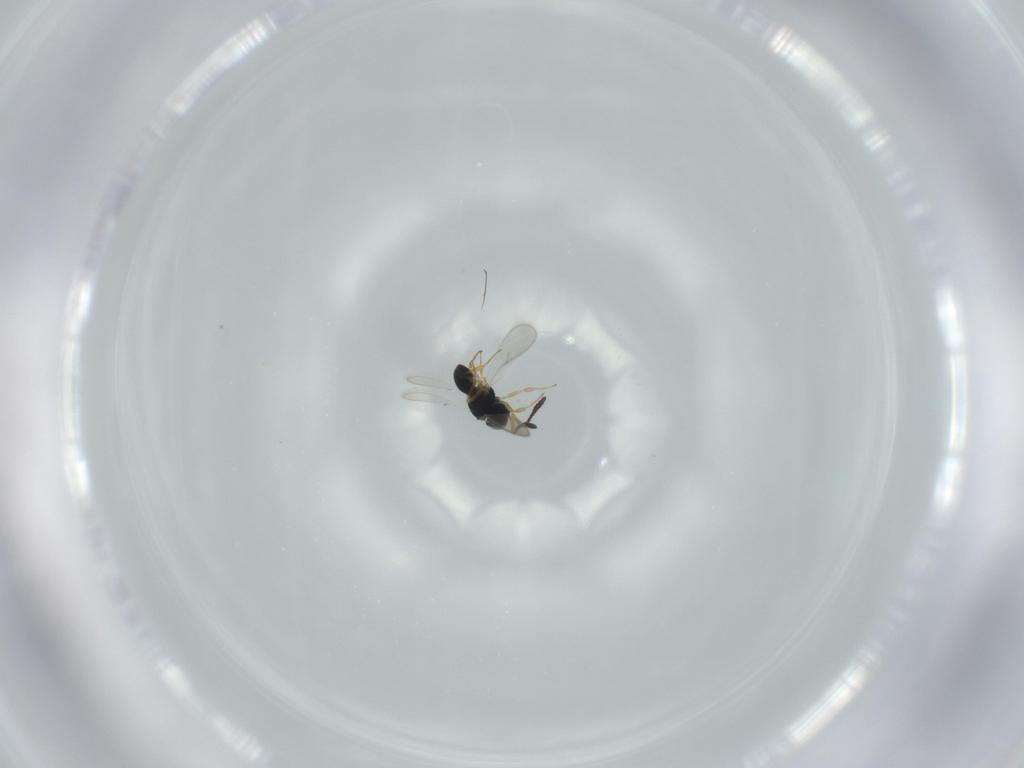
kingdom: Animalia
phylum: Arthropoda
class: Insecta
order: Hymenoptera
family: Scelionidae
